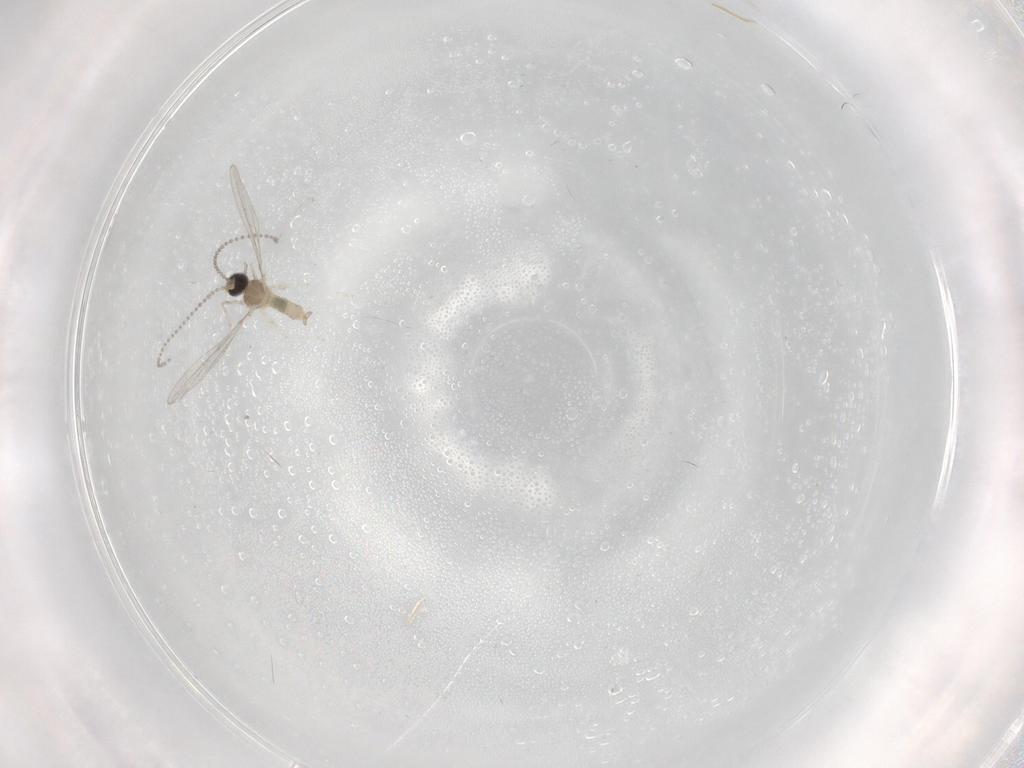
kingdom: Animalia
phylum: Arthropoda
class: Insecta
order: Diptera
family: Cecidomyiidae
